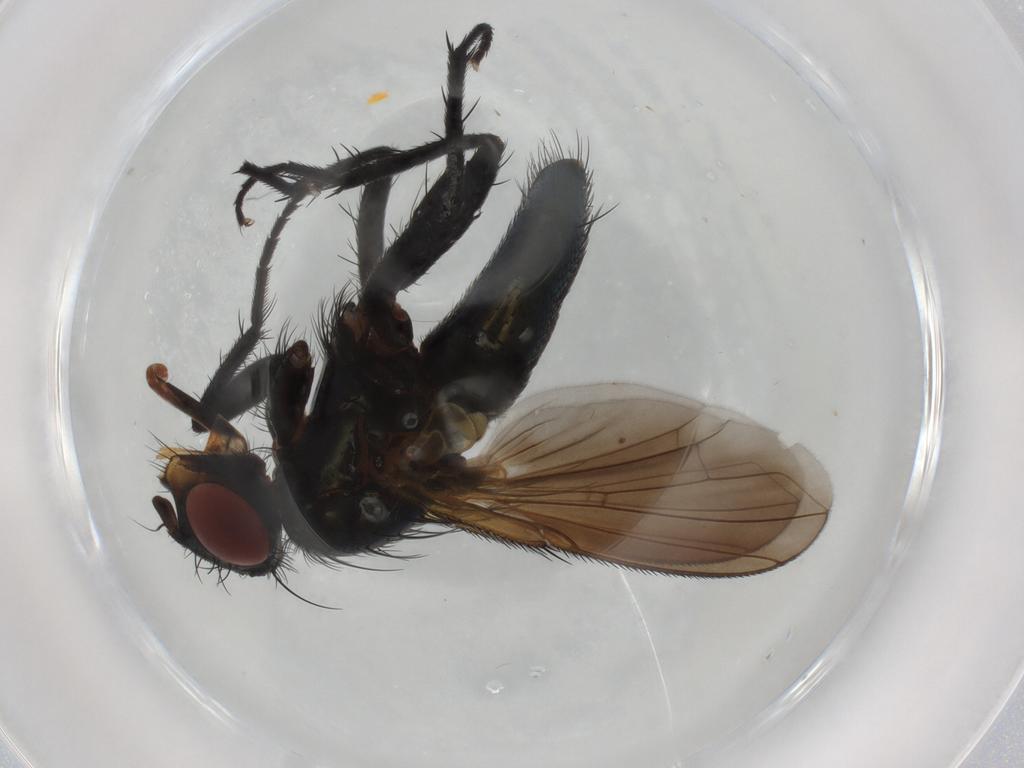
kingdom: Animalia
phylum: Arthropoda
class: Insecta
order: Diptera
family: Calliphoridae
